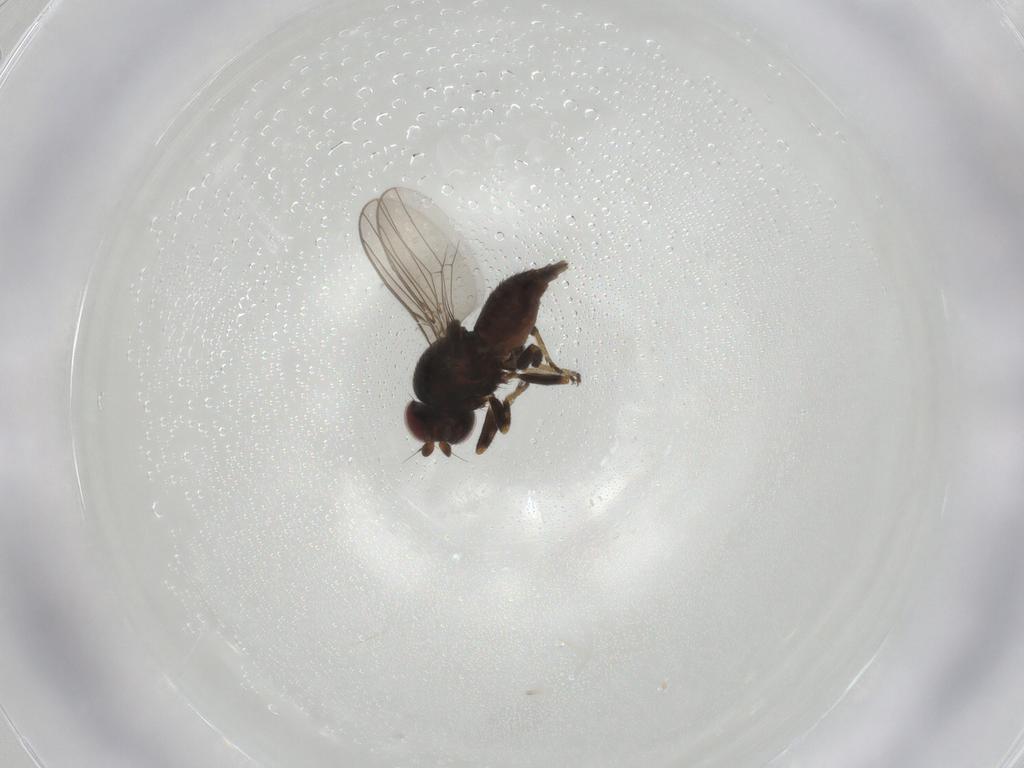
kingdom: Animalia
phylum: Arthropoda
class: Insecta
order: Diptera
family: Chloropidae
